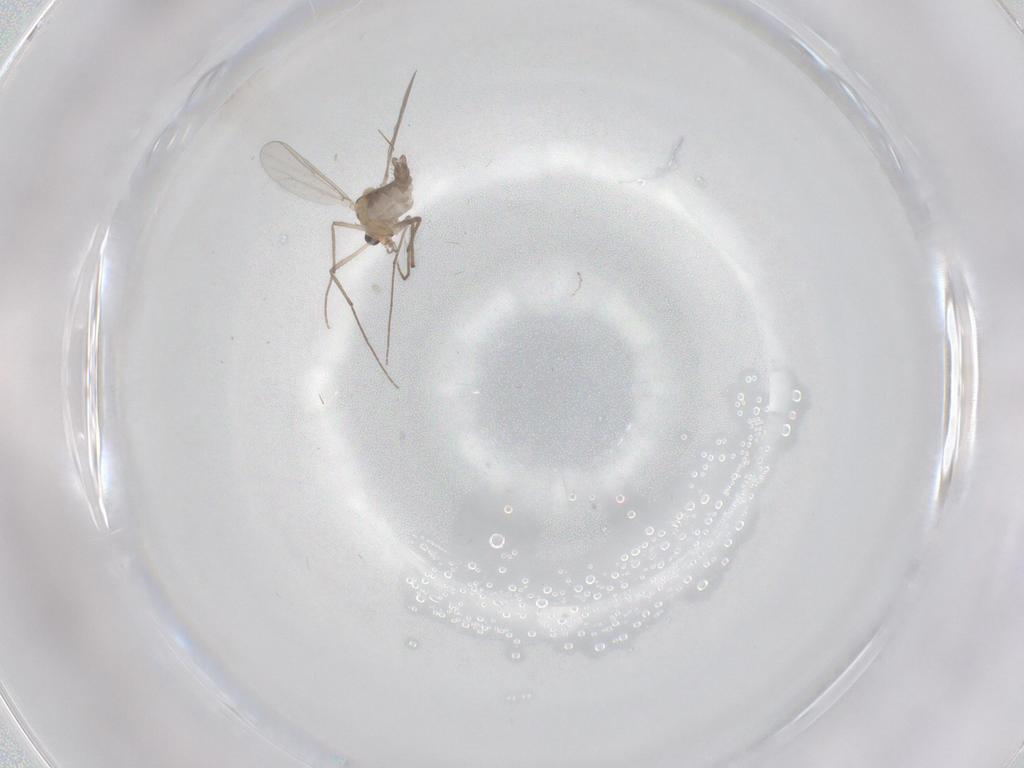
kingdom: Animalia
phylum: Arthropoda
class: Insecta
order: Diptera
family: Chironomidae
